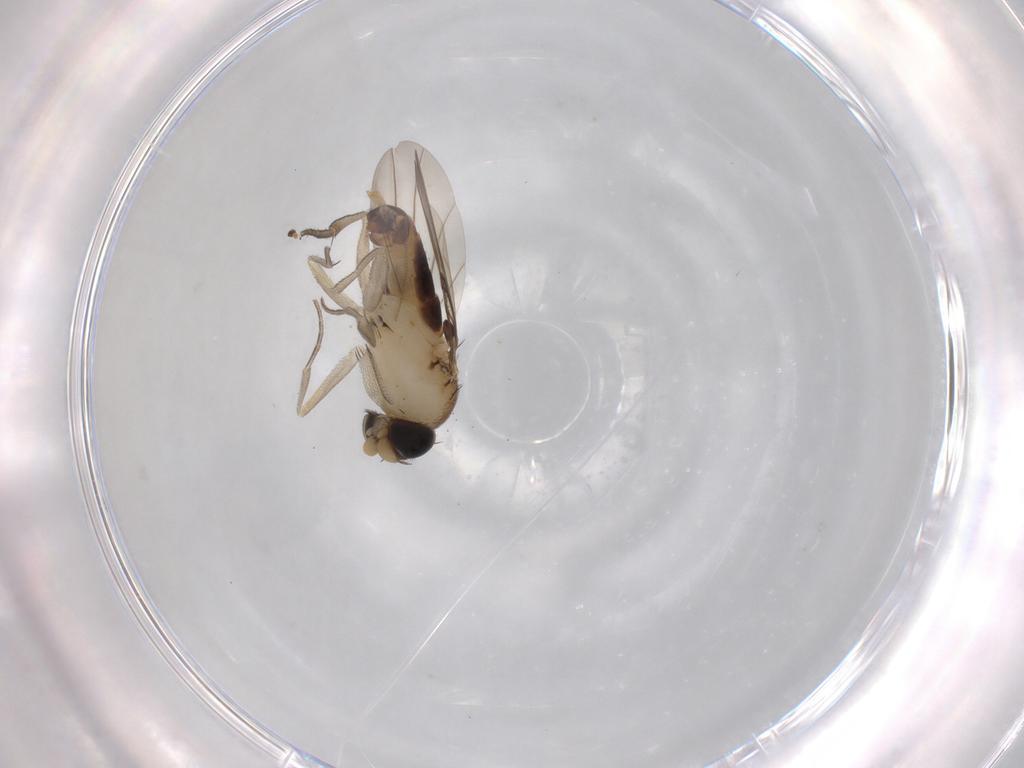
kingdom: Animalia
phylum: Arthropoda
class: Insecta
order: Diptera
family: Phoridae
